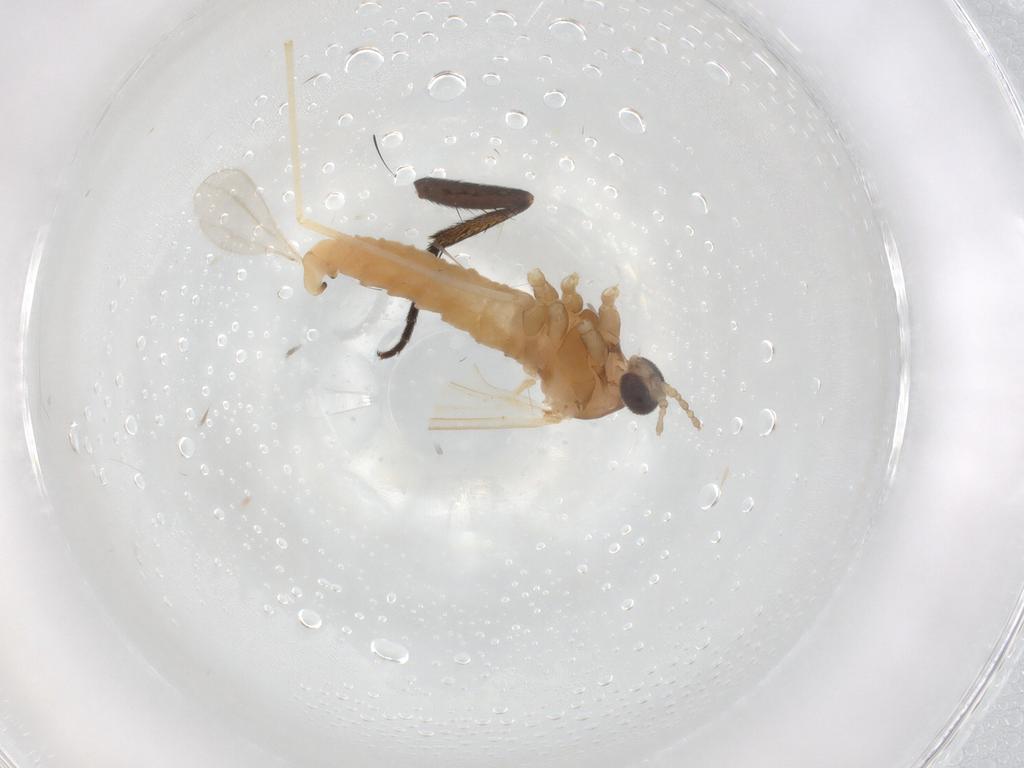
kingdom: Animalia
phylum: Arthropoda
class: Insecta
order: Diptera
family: Cecidomyiidae
